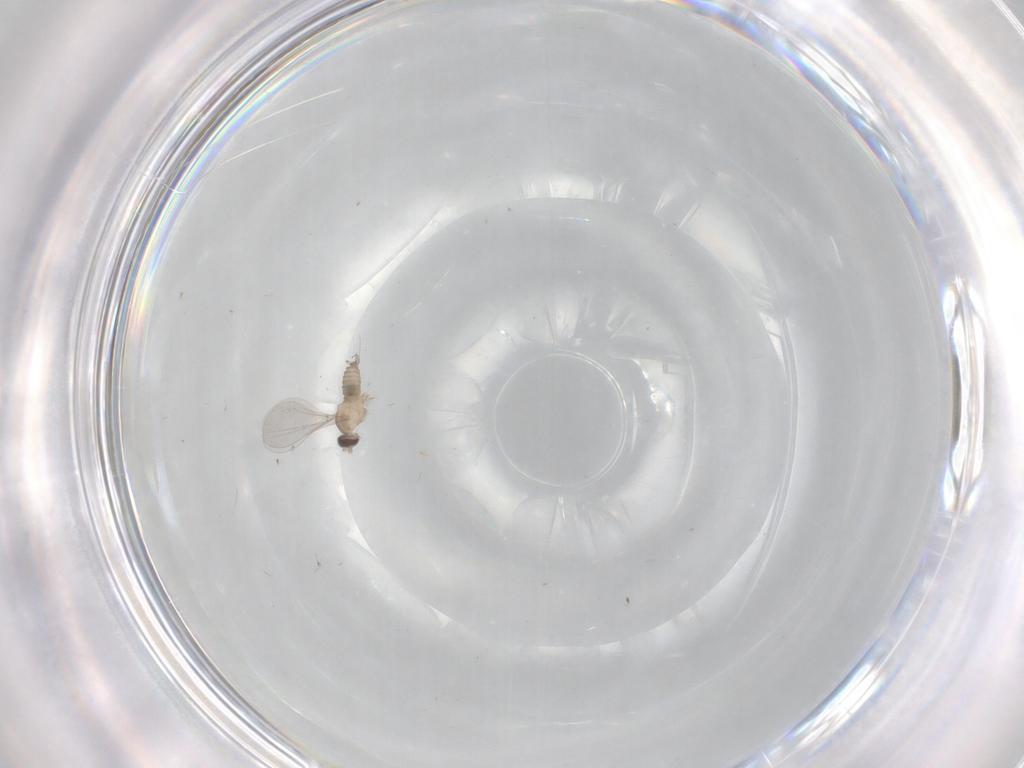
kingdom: Animalia
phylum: Arthropoda
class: Insecta
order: Diptera
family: Cecidomyiidae
